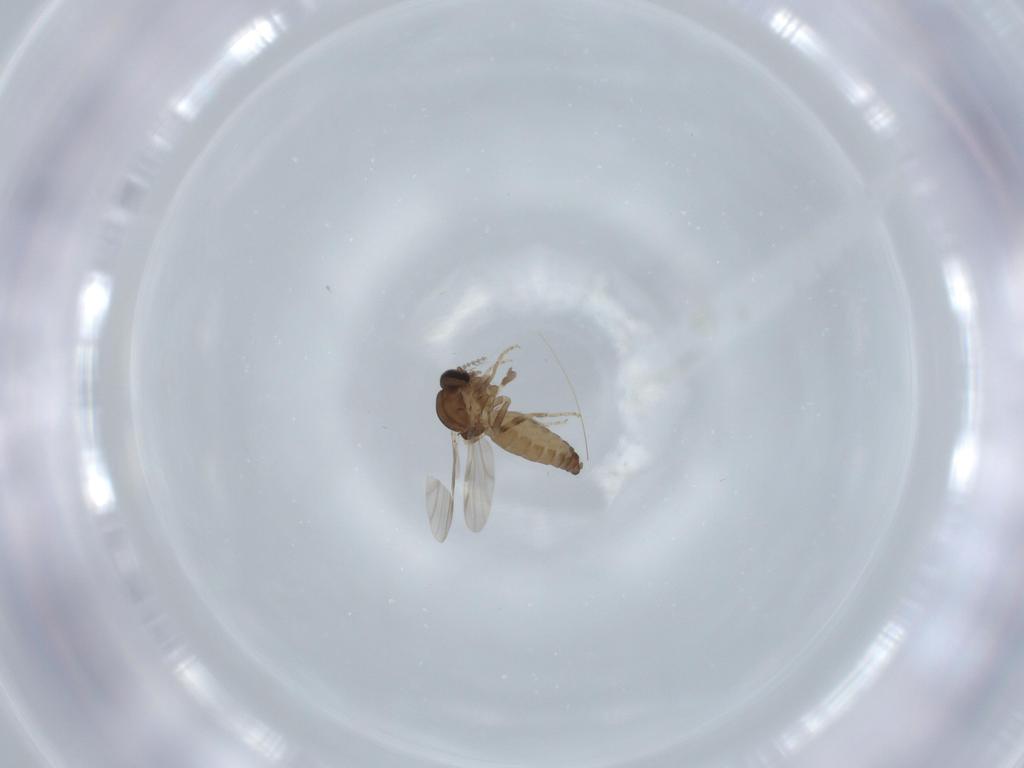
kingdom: Animalia
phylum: Arthropoda
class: Insecta
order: Diptera
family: Ceratopogonidae
